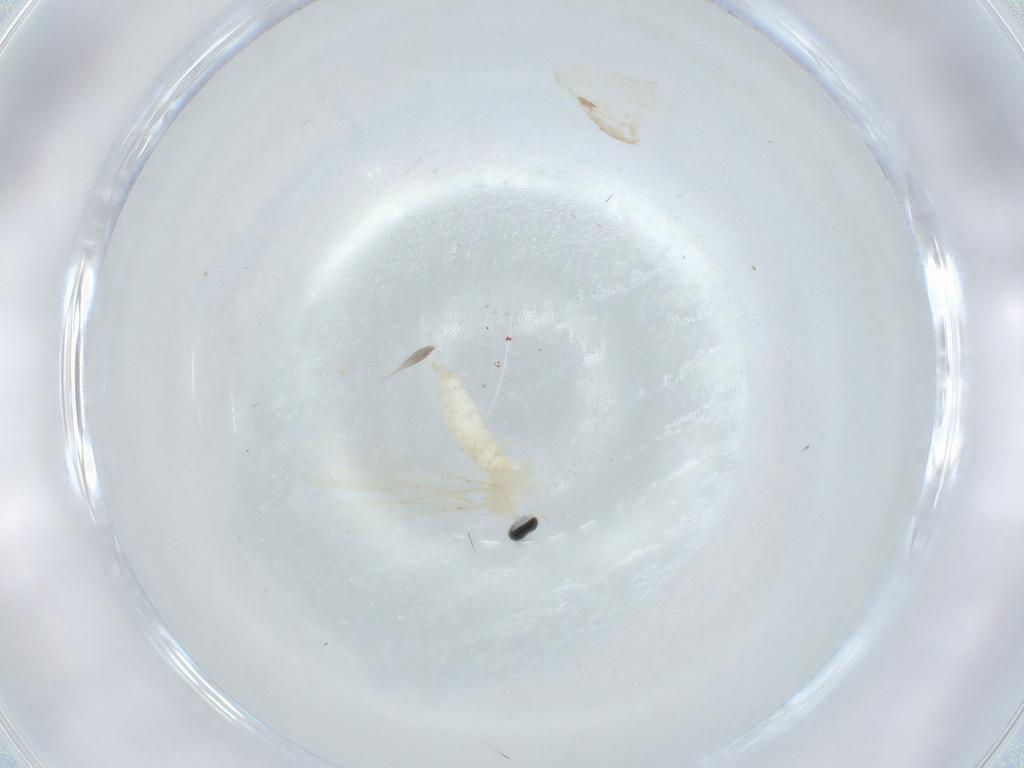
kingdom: Animalia
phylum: Arthropoda
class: Insecta
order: Diptera
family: Cecidomyiidae
